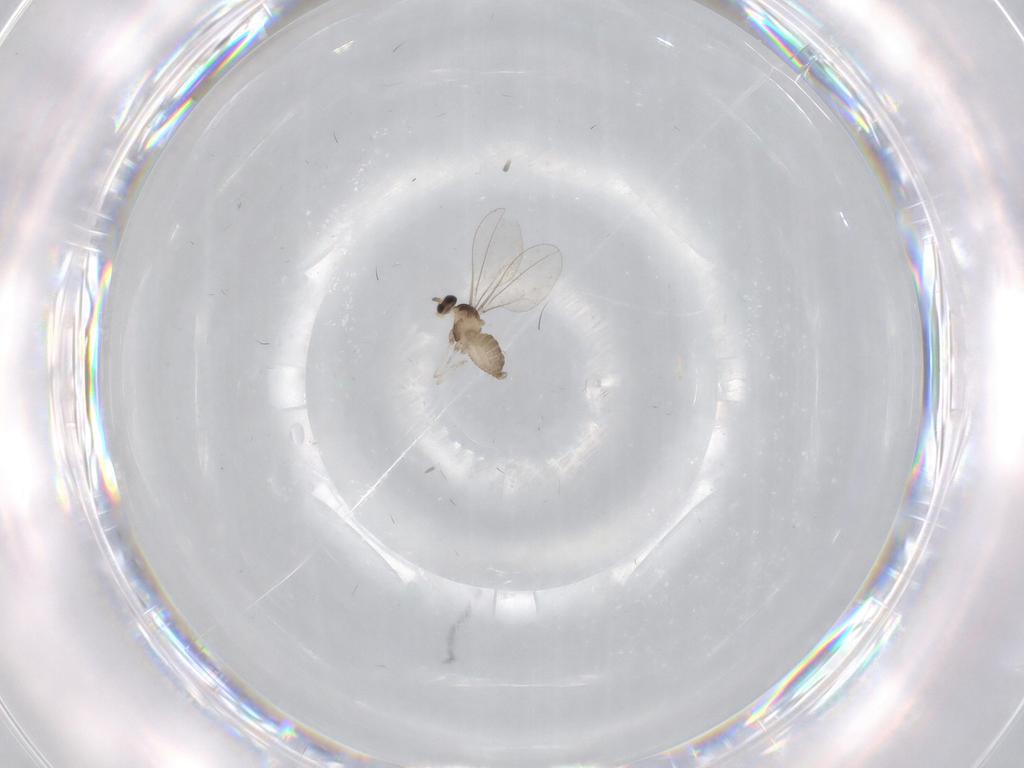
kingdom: Animalia
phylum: Arthropoda
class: Insecta
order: Diptera
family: Cecidomyiidae
